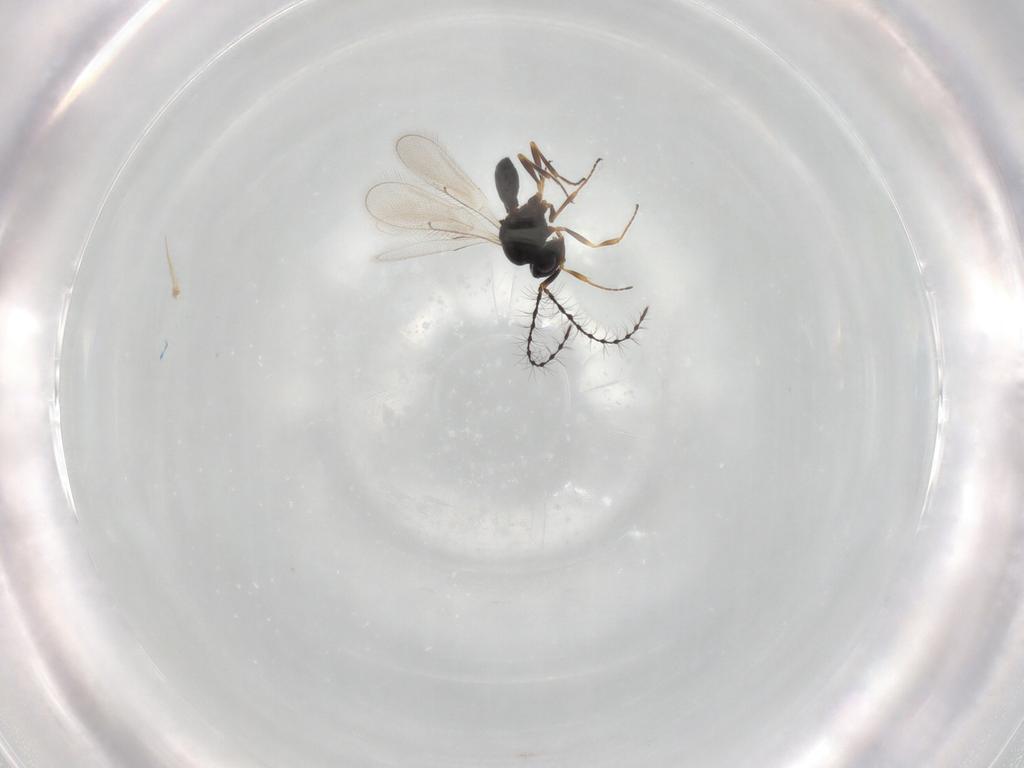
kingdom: Animalia
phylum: Arthropoda
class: Insecta
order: Hymenoptera
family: Scelionidae
